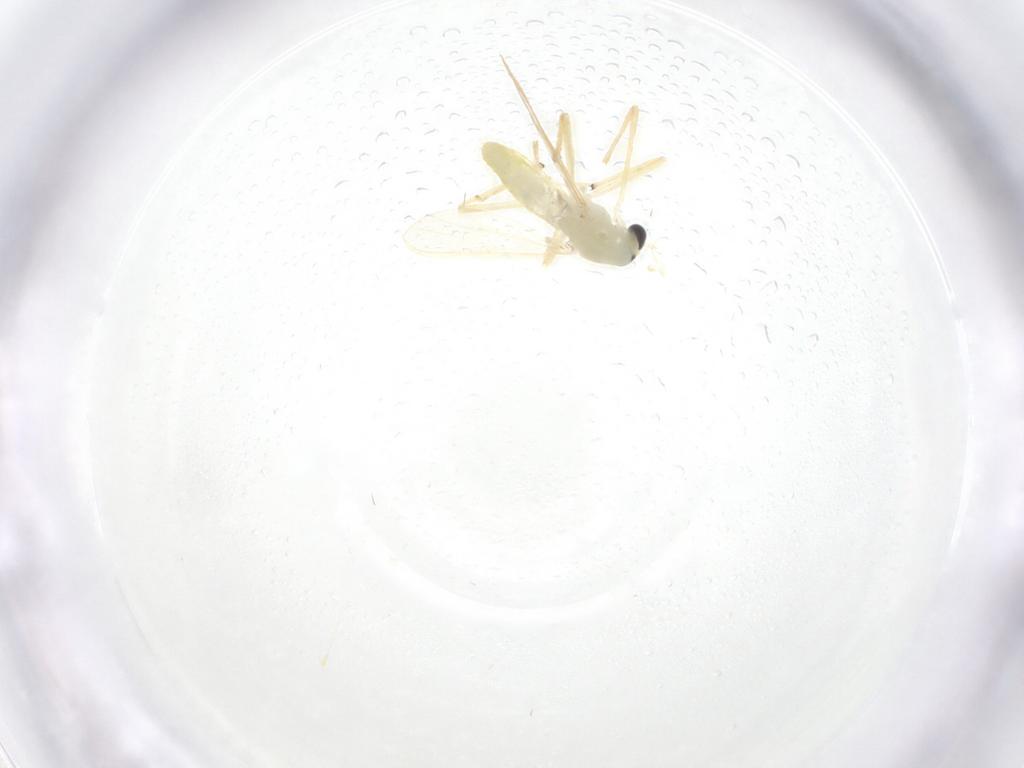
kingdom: Animalia
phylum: Arthropoda
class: Insecta
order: Diptera
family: Chironomidae
